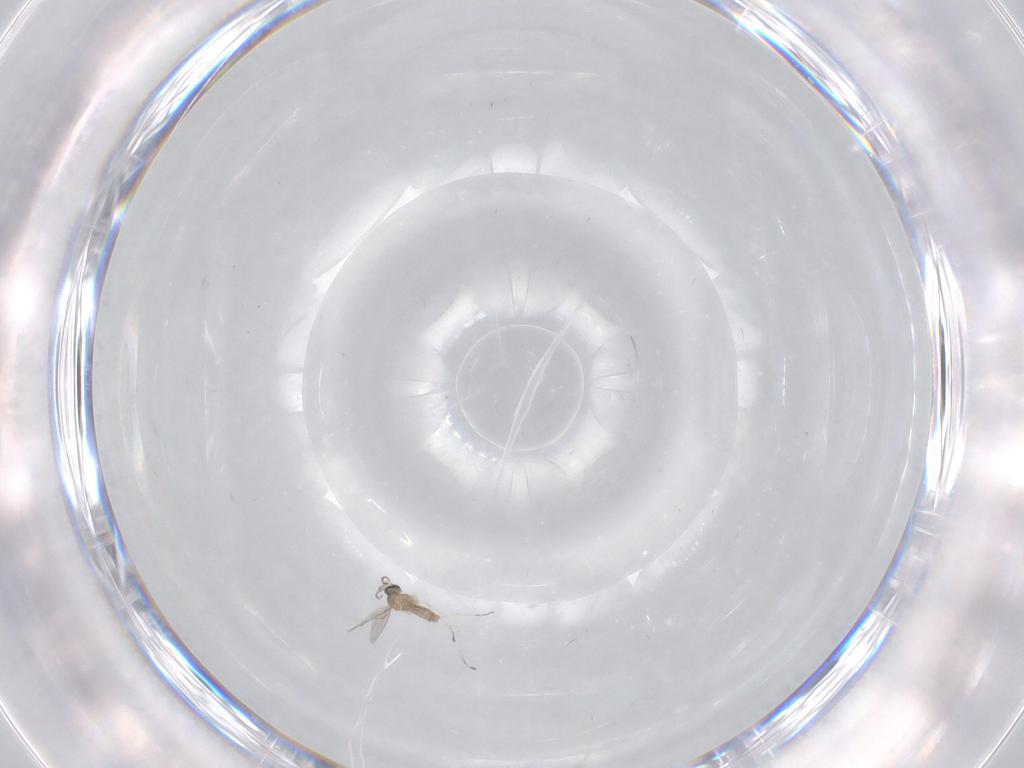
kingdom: Animalia
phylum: Arthropoda
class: Insecta
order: Diptera
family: Chironomidae
